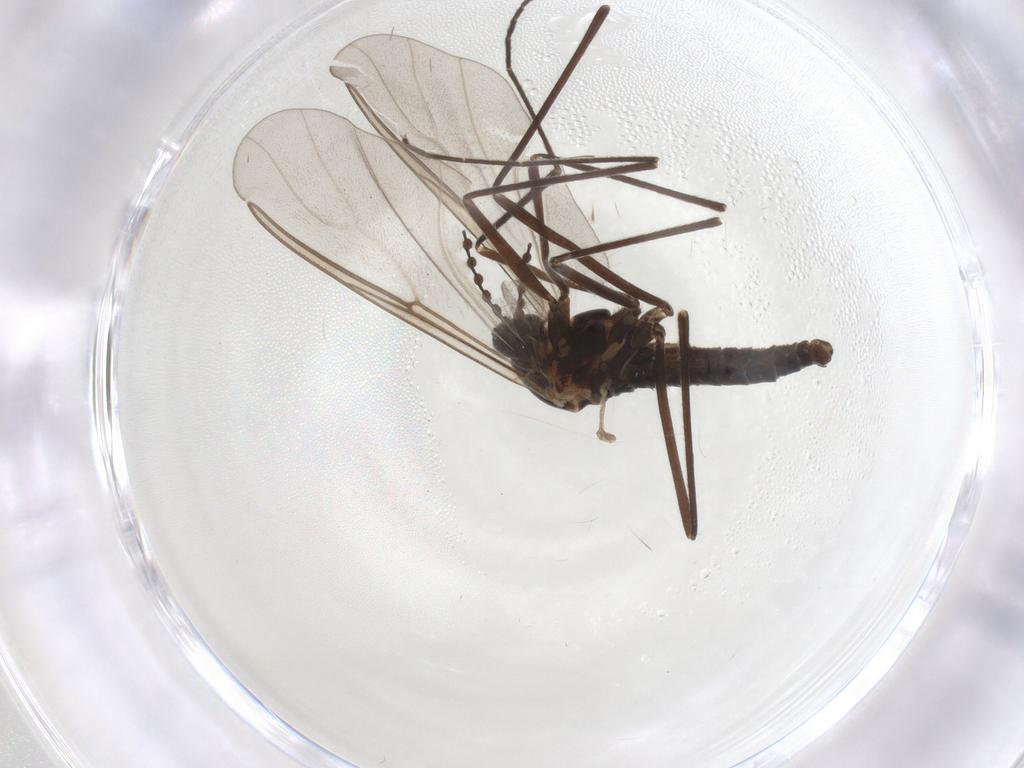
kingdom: Animalia
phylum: Arthropoda
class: Insecta
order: Diptera
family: Cecidomyiidae
